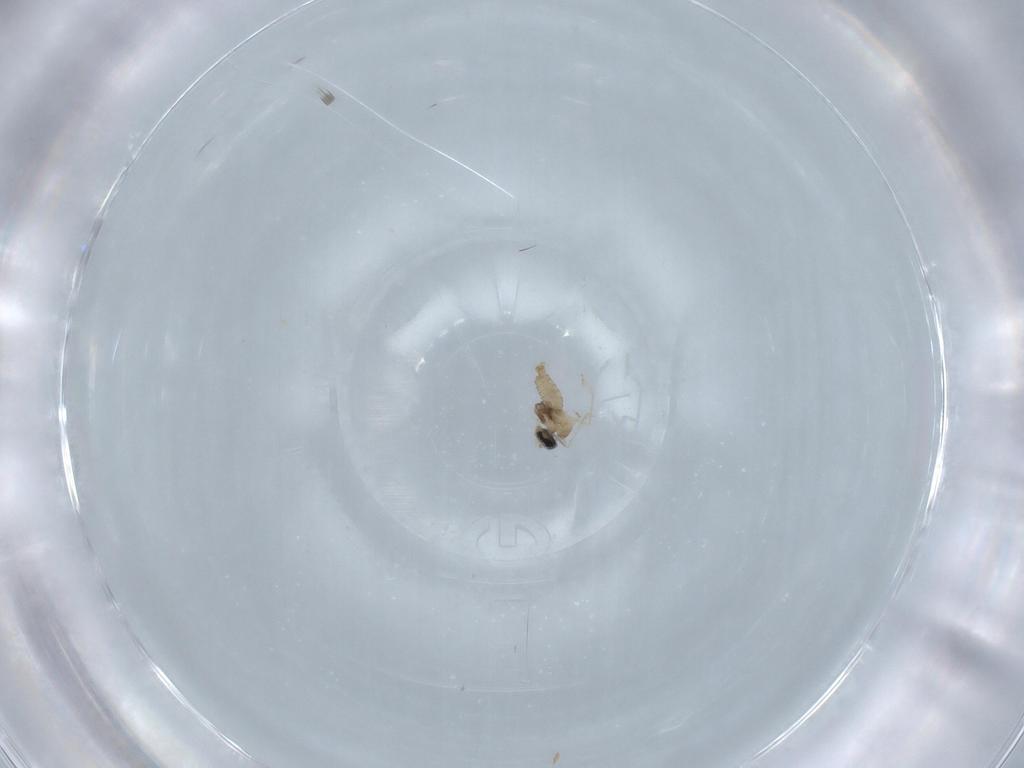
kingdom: Animalia
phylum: Arthropoda
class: Insecta
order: Diptera
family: Cecidomyiidae
